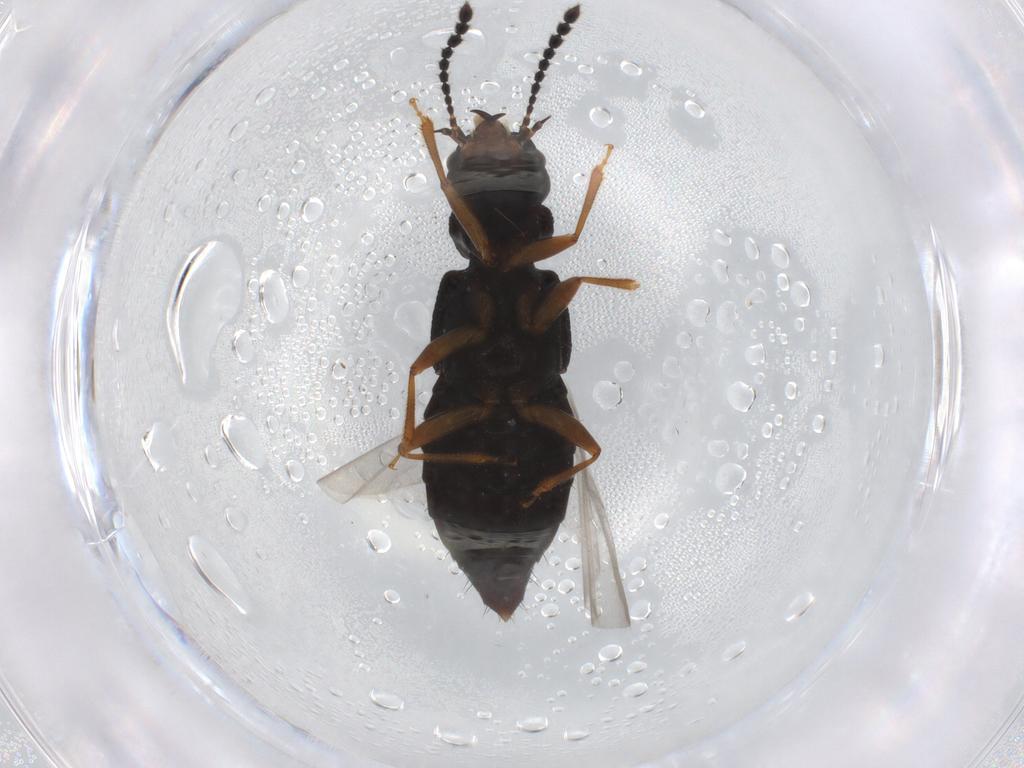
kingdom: Animalia
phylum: Arthropoda
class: Insecta
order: Coleoptera
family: Staphylinidae
